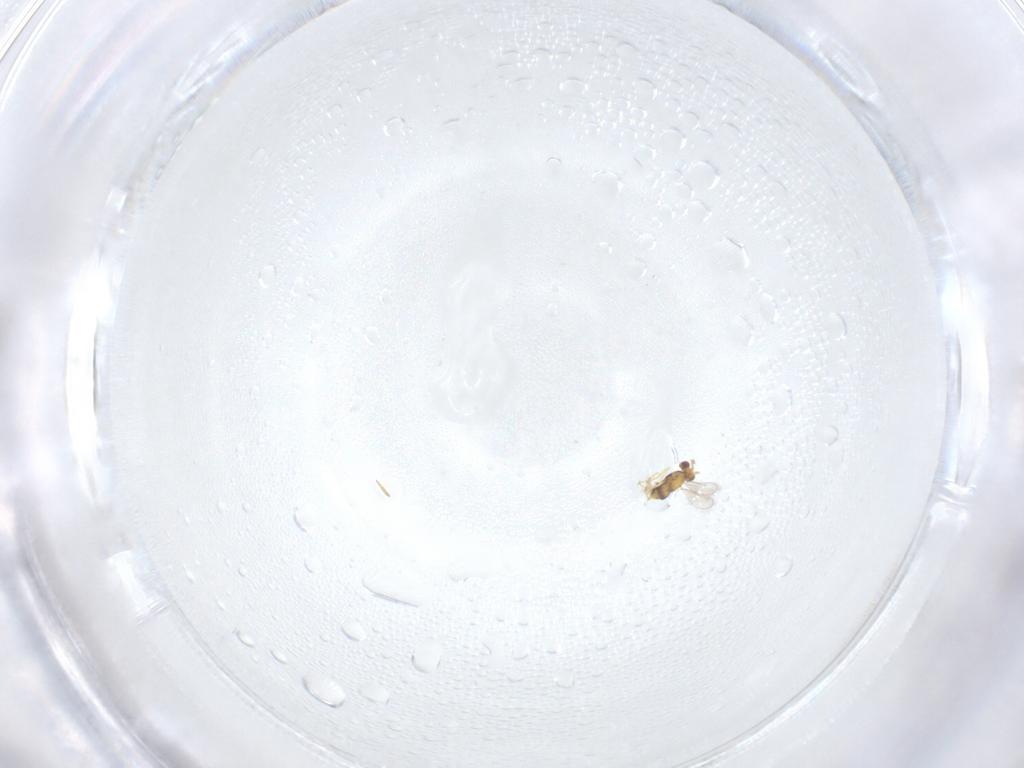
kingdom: Animalia
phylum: Arthropoda
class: Insecta
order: Hymenoptera
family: Aphelinidae
